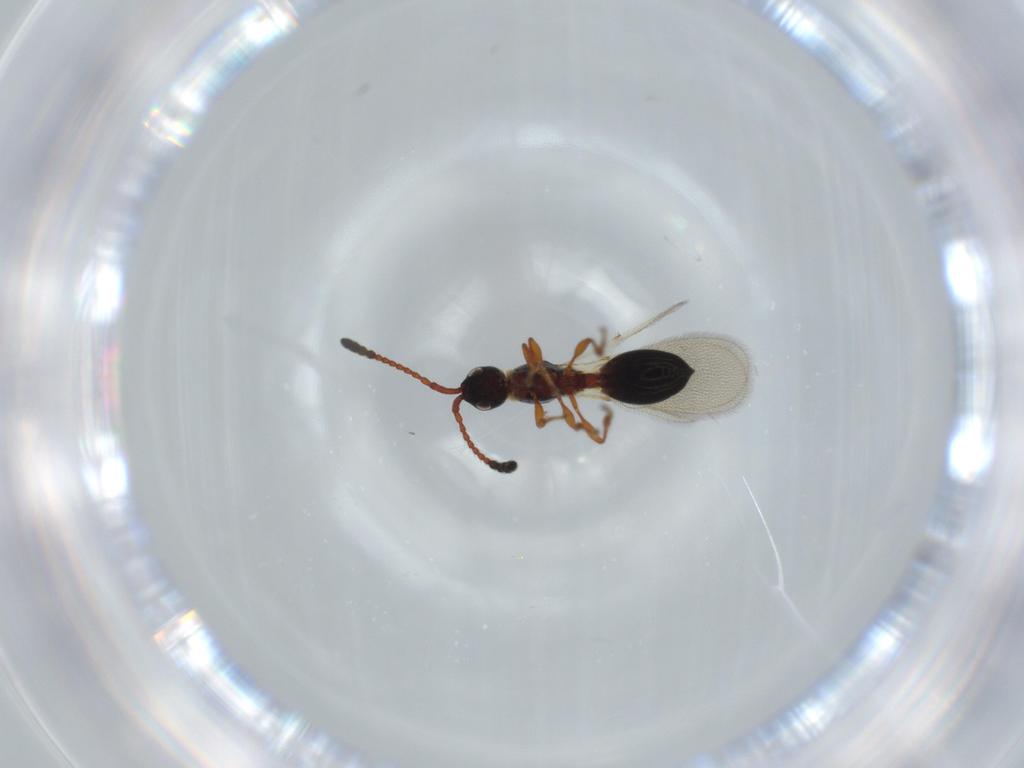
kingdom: Animalia
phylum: Arthropoda
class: Insecta
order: Hymenoptera
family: Diapriidae
